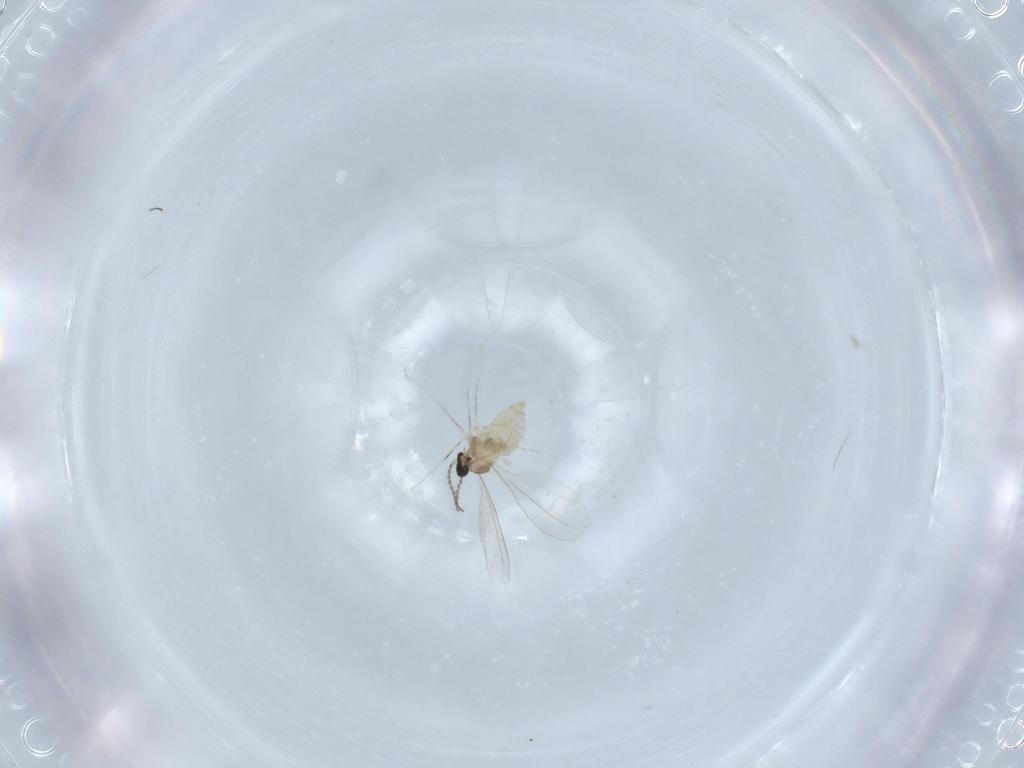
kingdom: Animalia
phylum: Arthropoda
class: Insecta
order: Diptera
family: Cecidomyiidae
